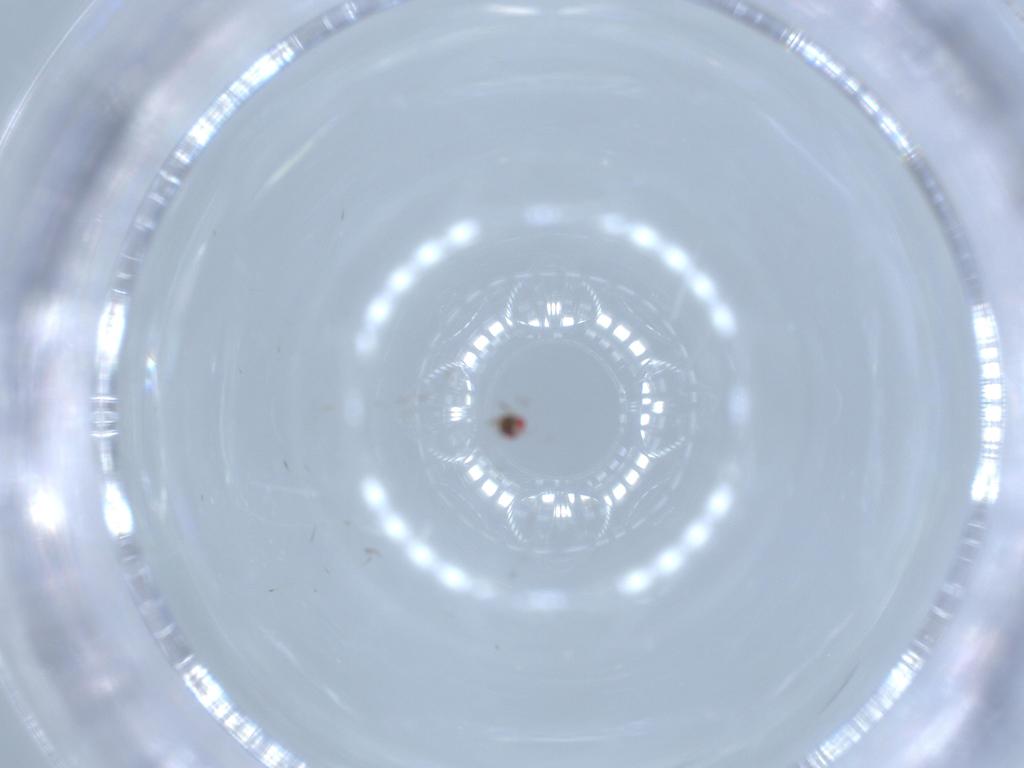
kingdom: Animalia
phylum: Arthropoda
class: Insecta
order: Hymenoptera
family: Azotidae
